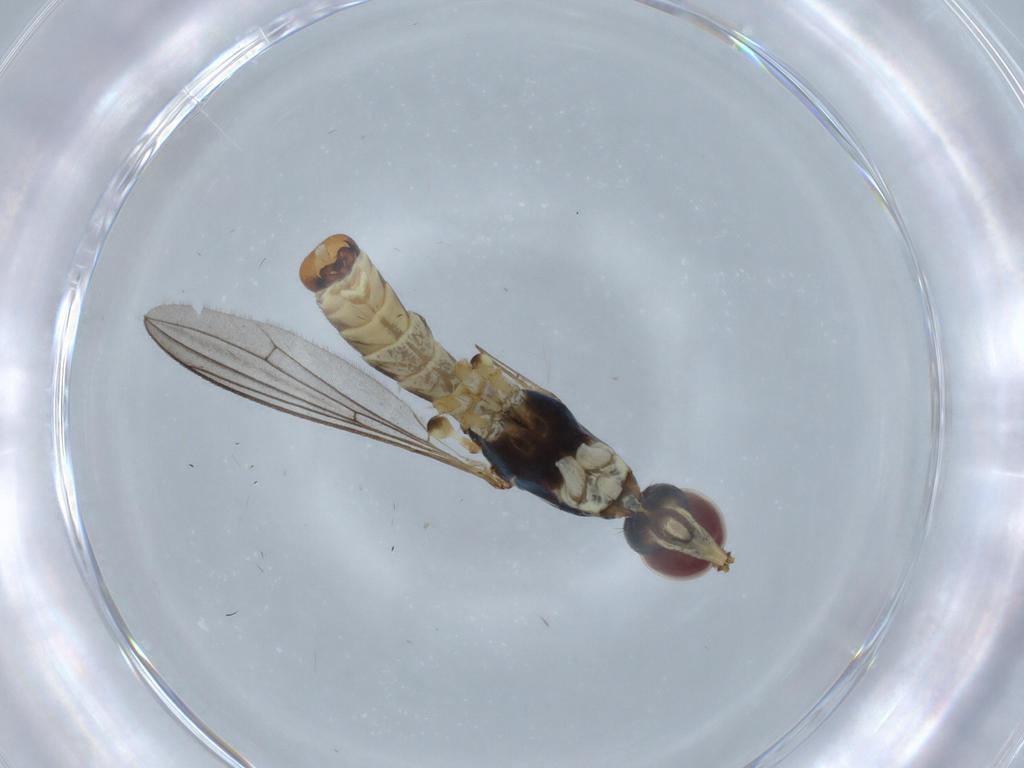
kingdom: Animalia
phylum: Arthropoda
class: Insecta
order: Diptera
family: Micropezidae
